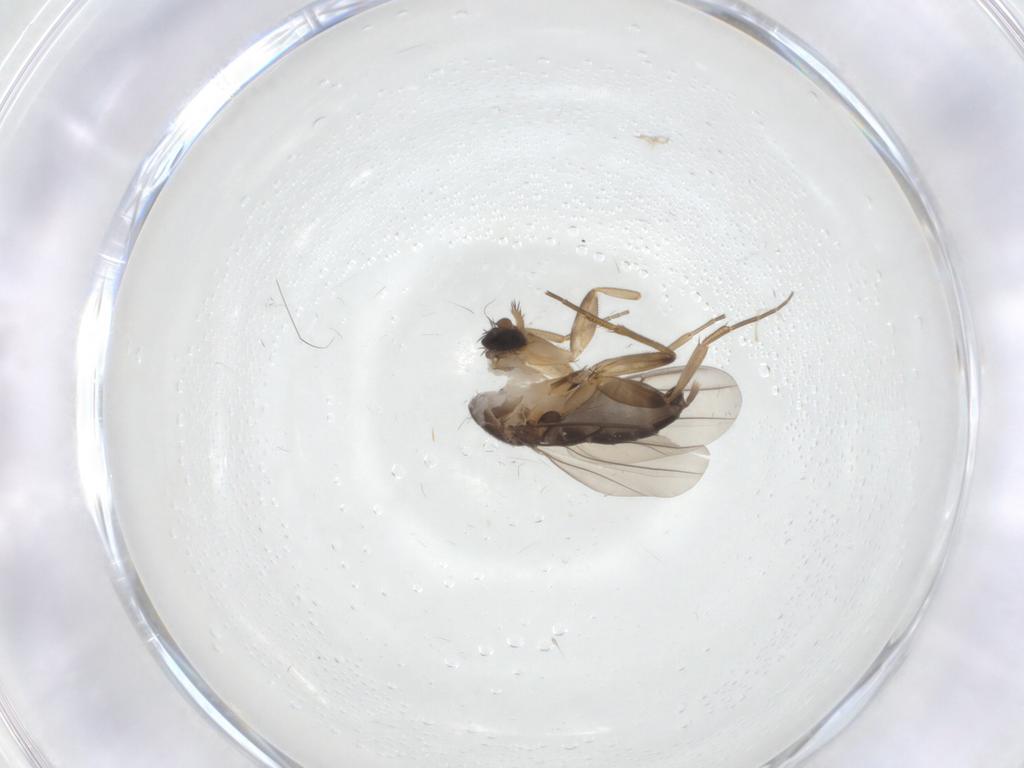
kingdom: Animalia
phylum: Arthropoda
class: Insecta
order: Diptera
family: Phoridae
